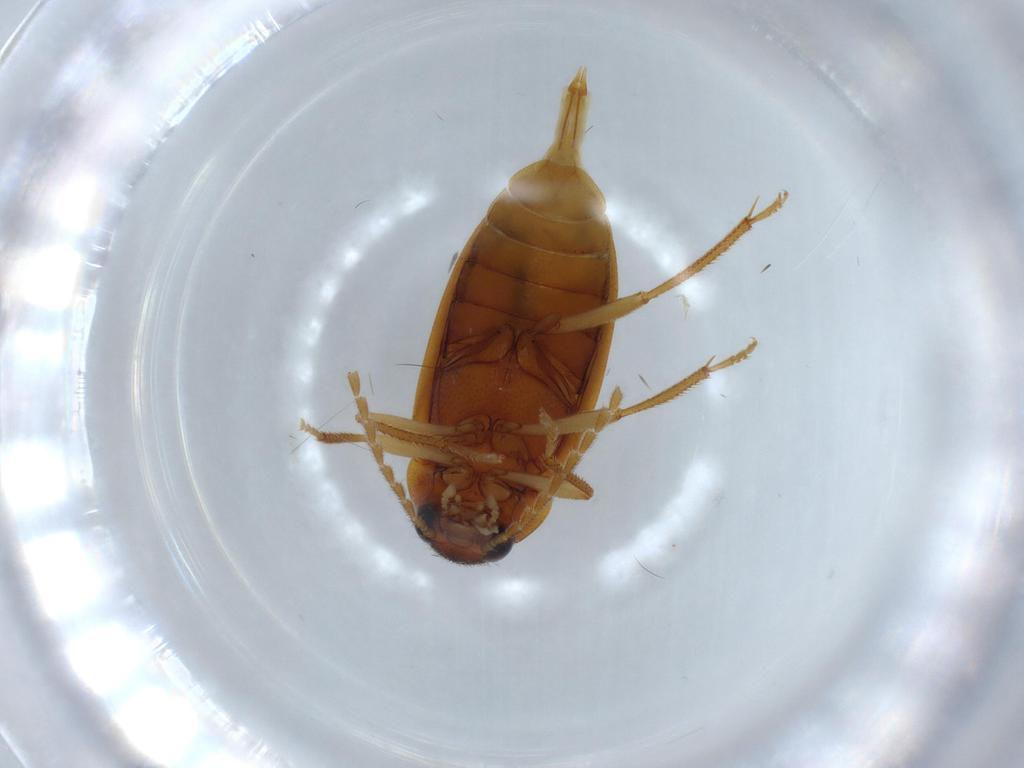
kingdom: Animalia
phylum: Arthropoda
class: Insecta
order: Coleoptera
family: Ptilodactylidae
